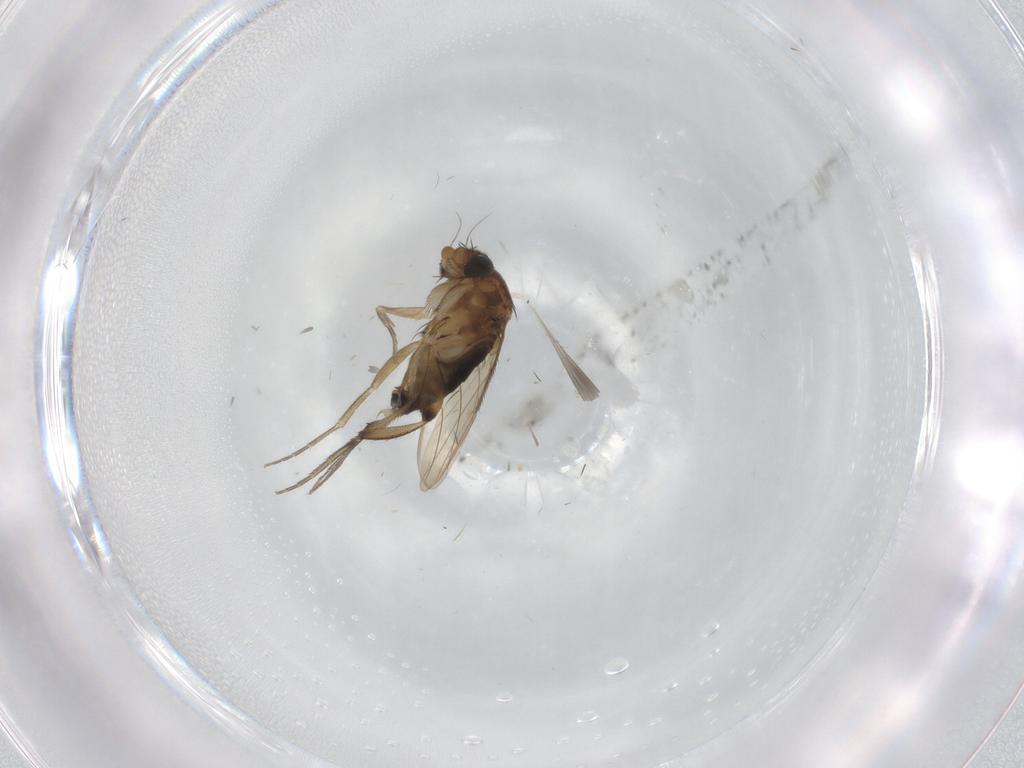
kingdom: Animalia
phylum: Arthropoda
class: Insecta
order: Diptera
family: Phoridae
